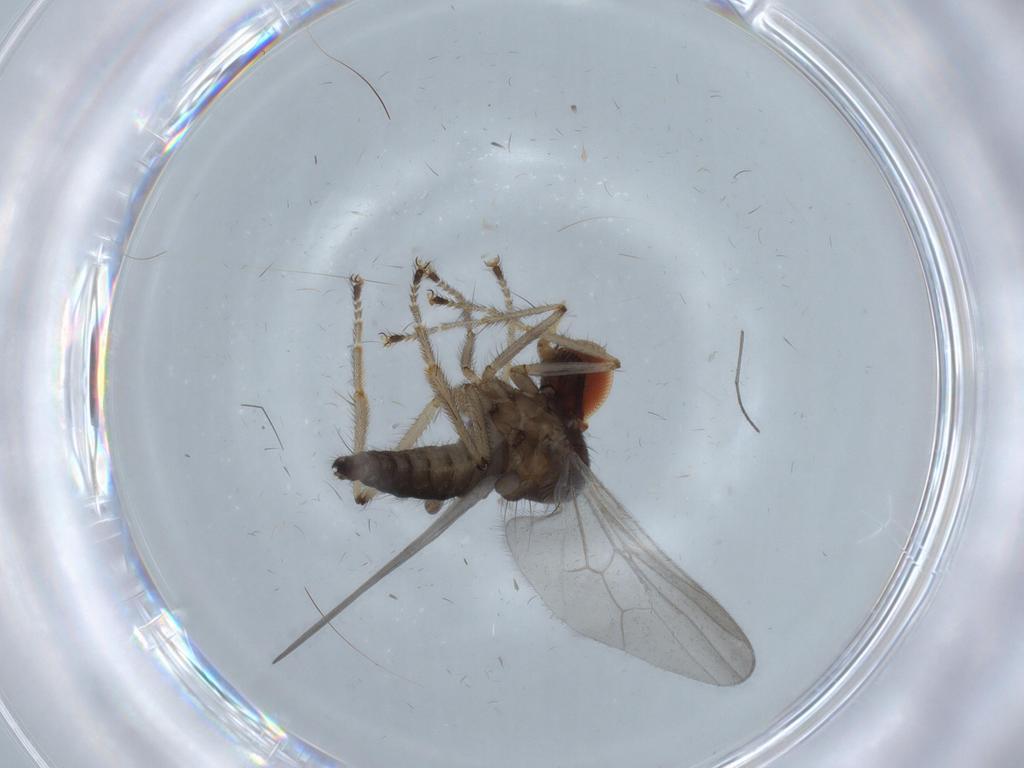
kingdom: Animalia
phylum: Arthropoda
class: Insecta
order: Diptera
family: Hybotidae
